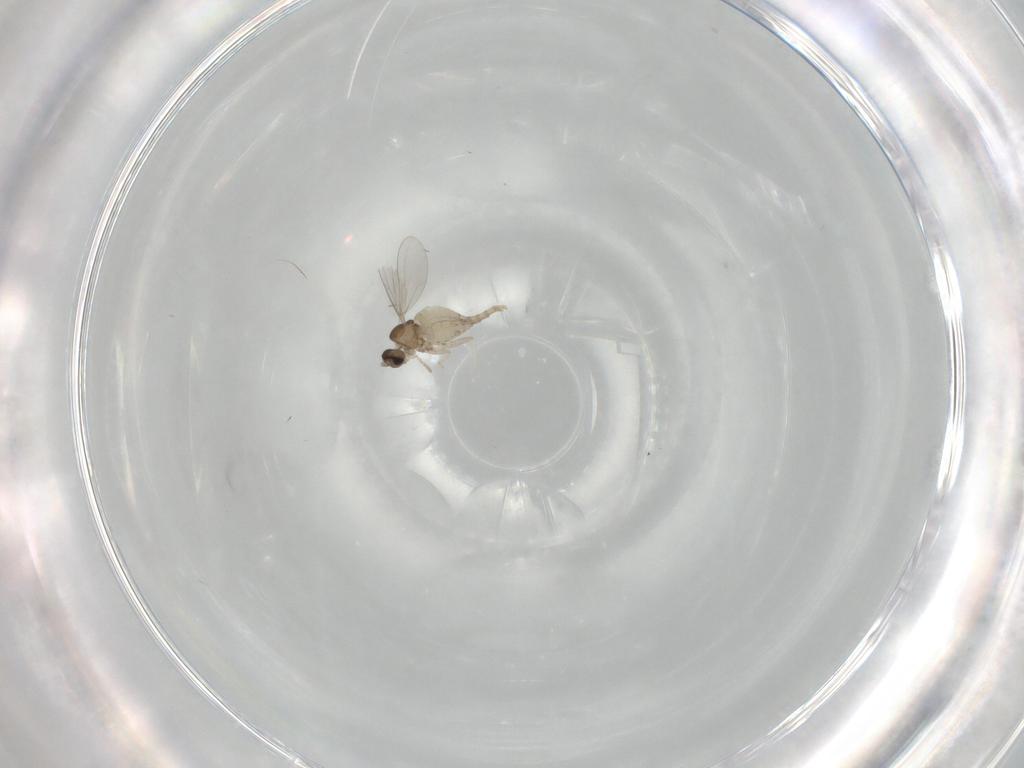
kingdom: Animalia
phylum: Arthropoda
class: Insecta
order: Diptera
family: Cecidomyiidae
